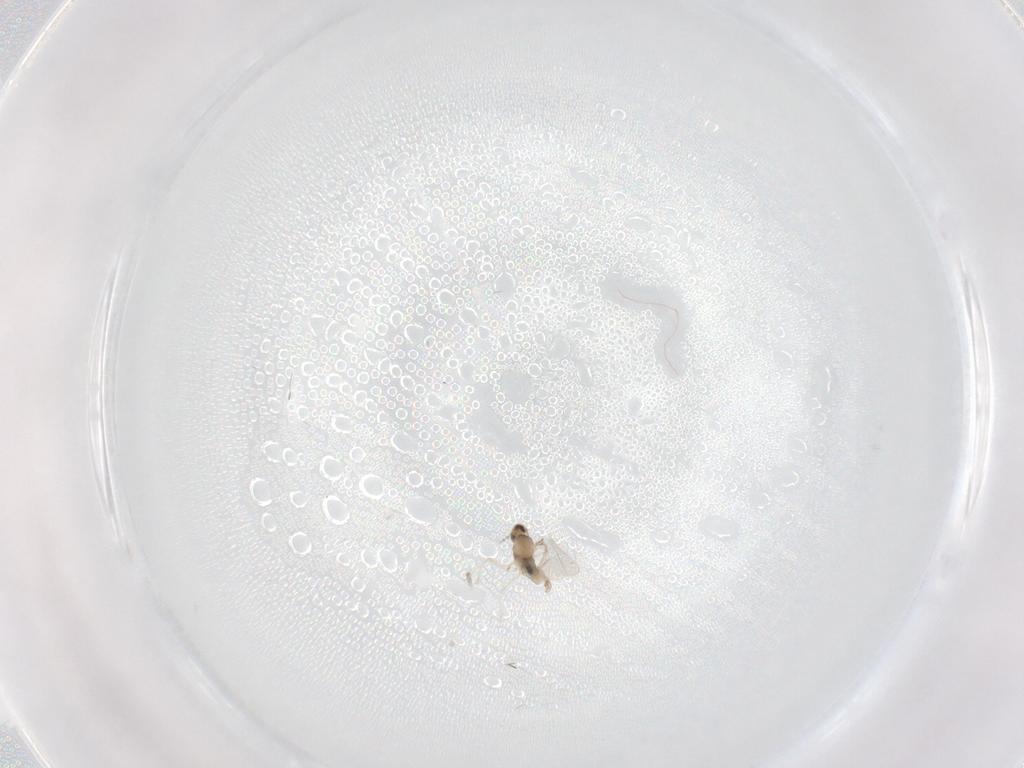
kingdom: Animalia
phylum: Arthropoda
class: Insecta
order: Diptera
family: Cecidomyiidae
